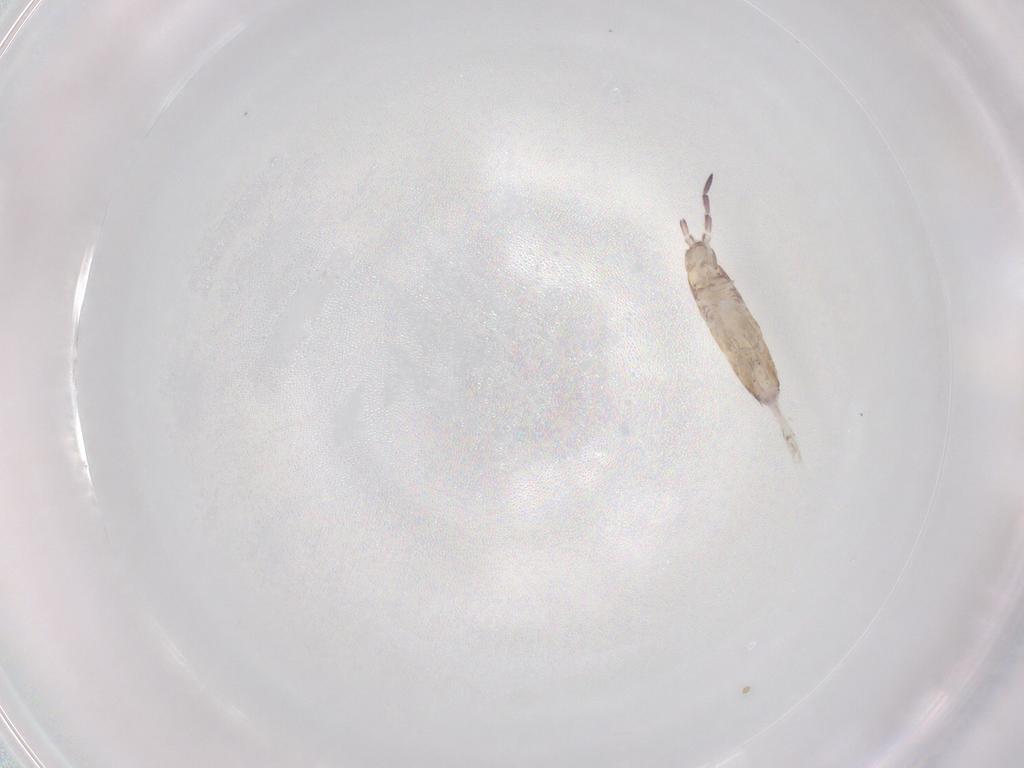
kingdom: Animalia
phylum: Arthropoda
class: Collembola
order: Entomobryomorpha
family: Entomobryidae
